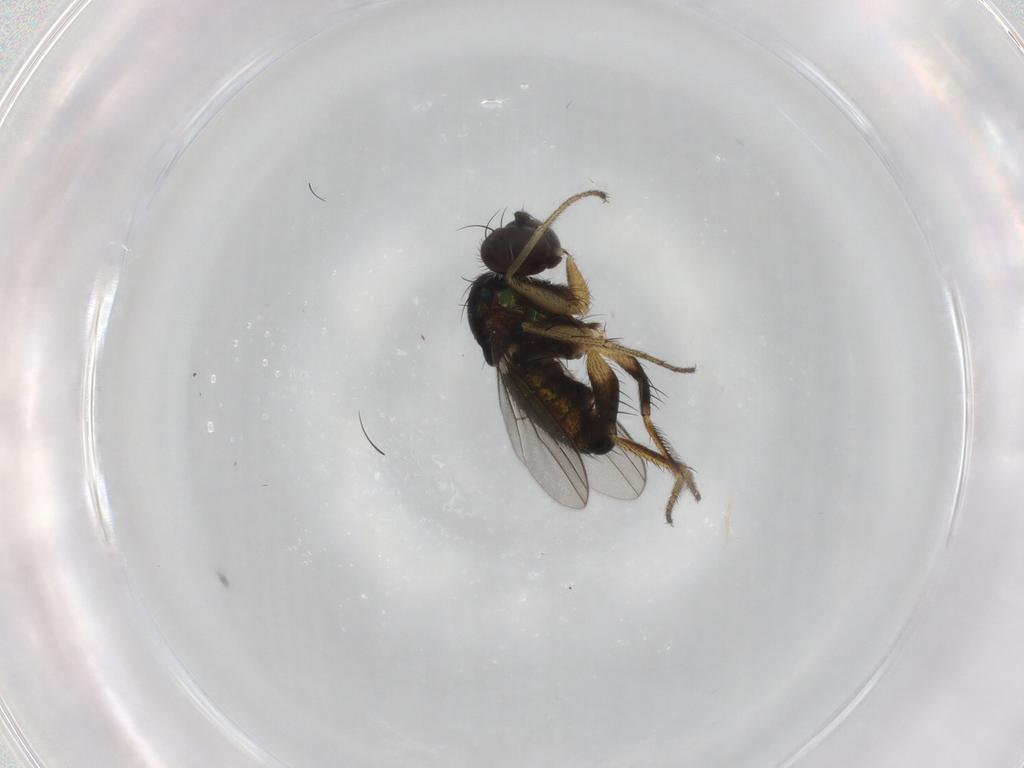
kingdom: Animalia
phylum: Arthropoda
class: Insecta
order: Diptera
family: Dolichopodidae
